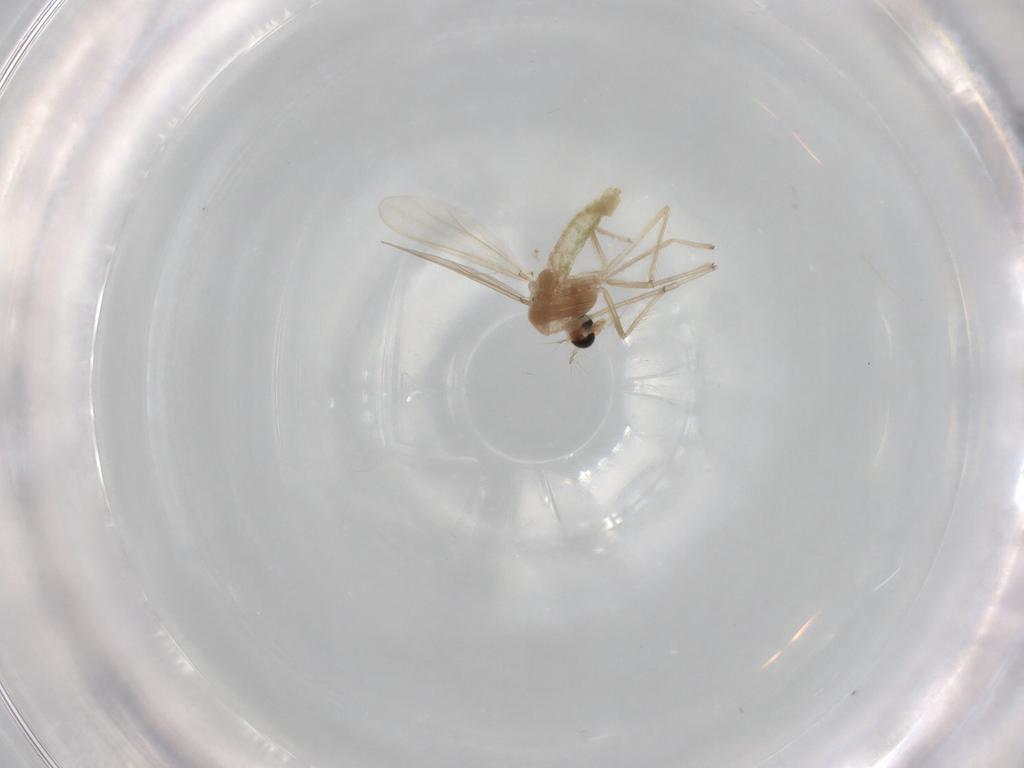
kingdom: Animalia
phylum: Arthropoda
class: Insecta
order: Diptera
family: Chironomidae
